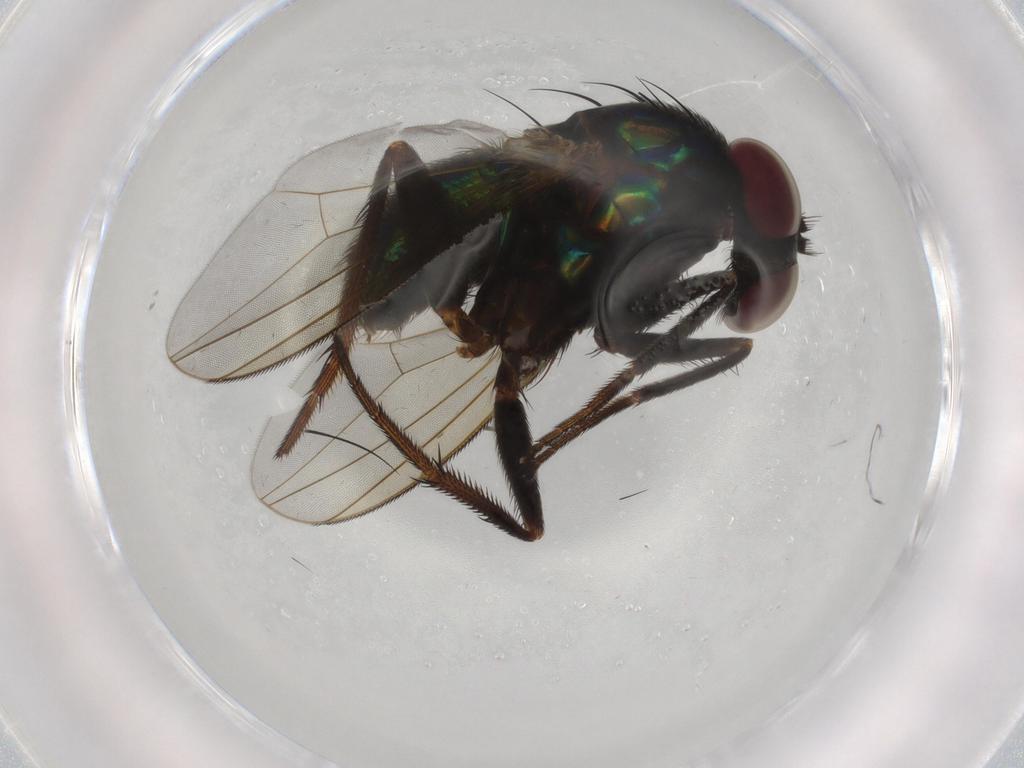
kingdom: Animalia
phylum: Arthropoda
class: Insecta
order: Diptera
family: Dolichopodidae
